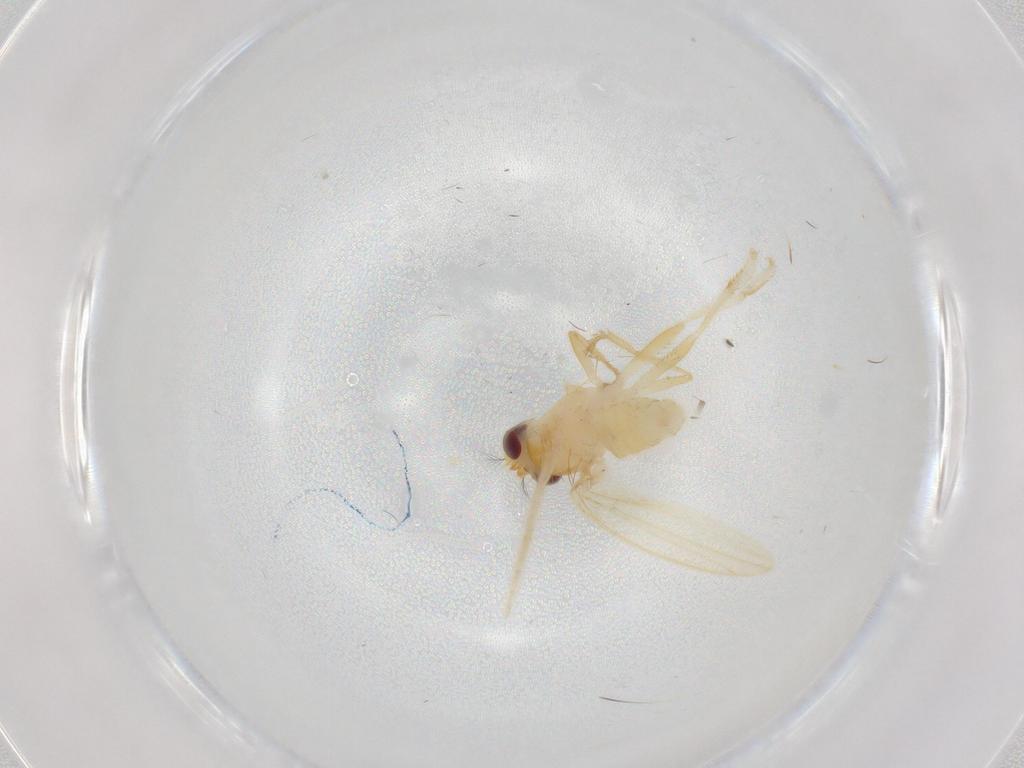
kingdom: Animalia
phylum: Arthropoda
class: Insecta
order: Diptera
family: Periscelididae
